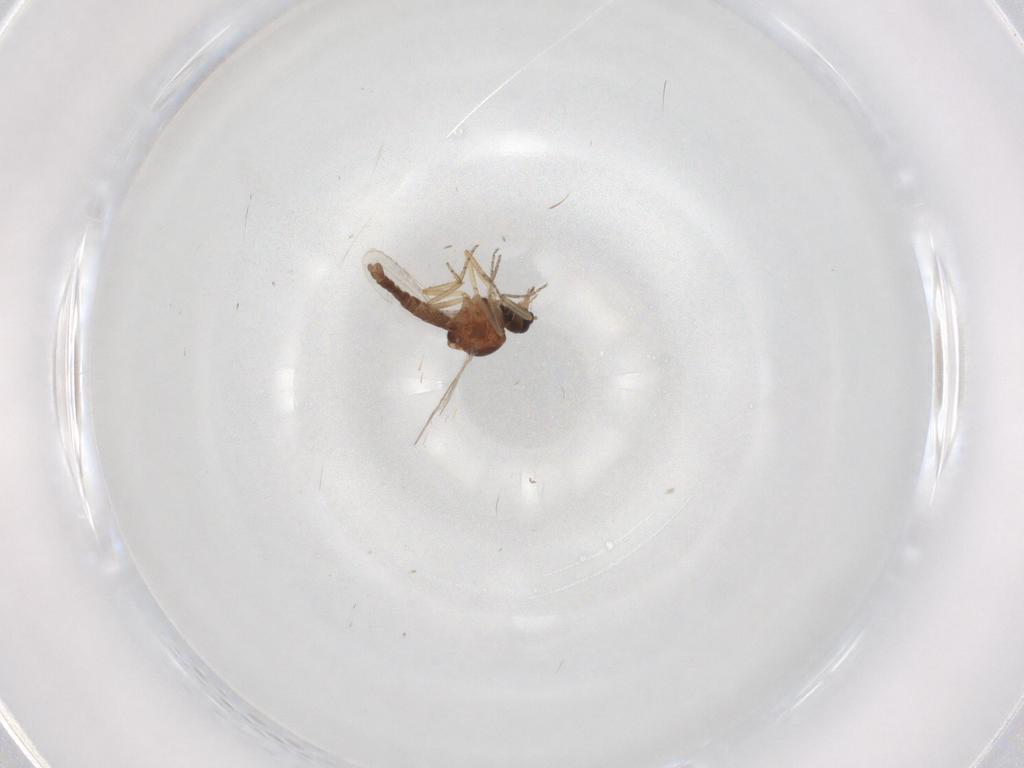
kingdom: Animalia
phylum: Arthropoda
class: Insecta
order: Diptera
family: Ceratopogonidae
